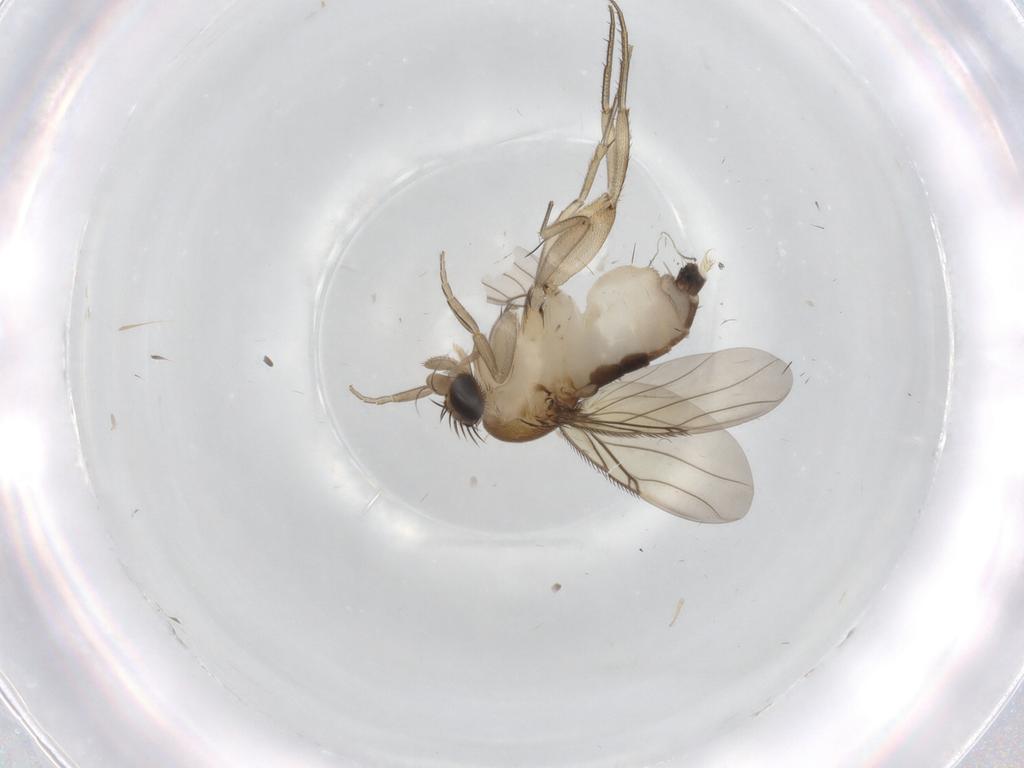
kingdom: Animalia
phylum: Arthropoda
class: Insecta
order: Diptera
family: Phoridae
